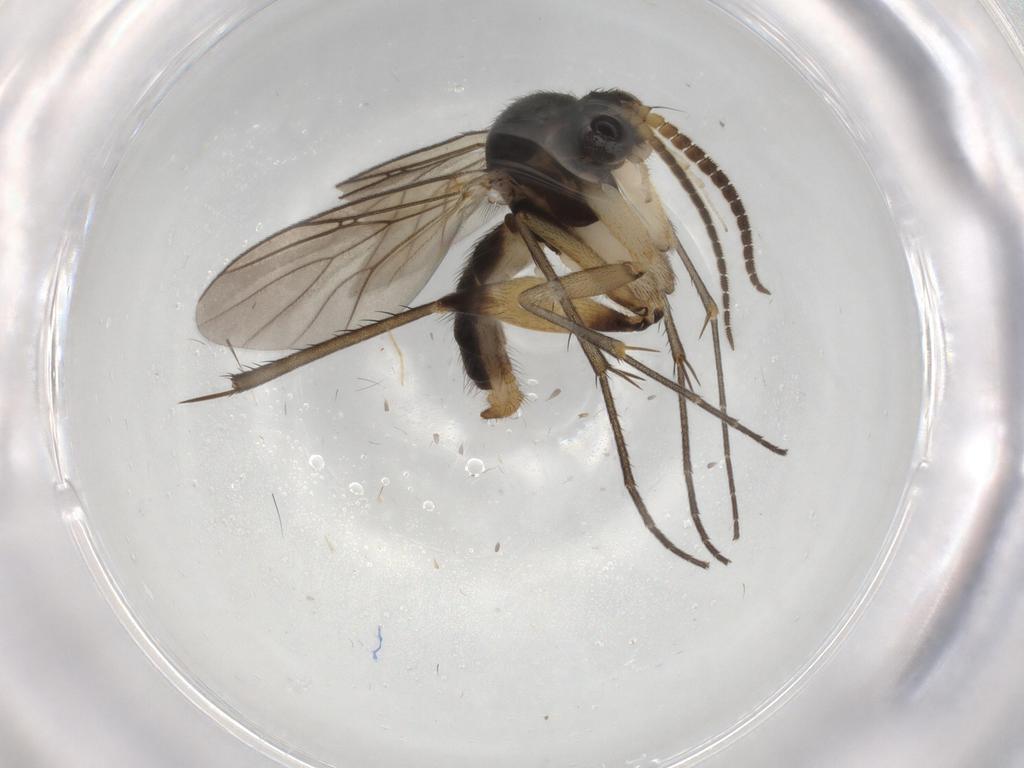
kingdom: Animalia
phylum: Arthropoda
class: Insecta
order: Diptera
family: Sciaridae
